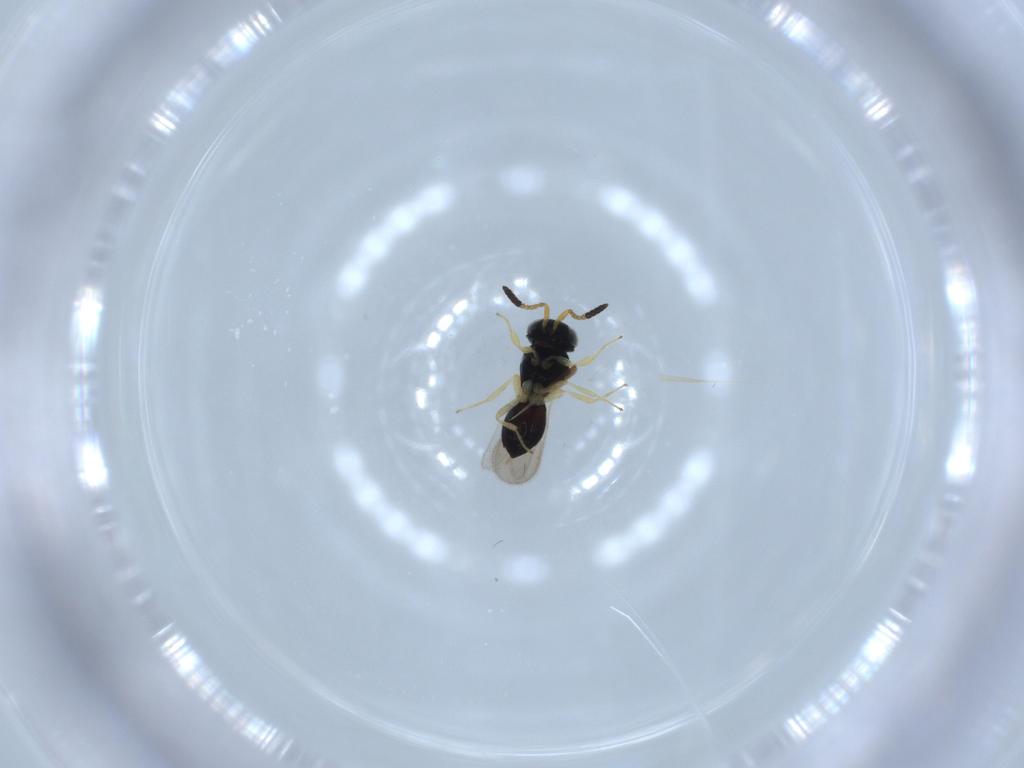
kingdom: Animalia
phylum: Arthropoda
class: Insecta
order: Hymenoptera
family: Scelionidae
